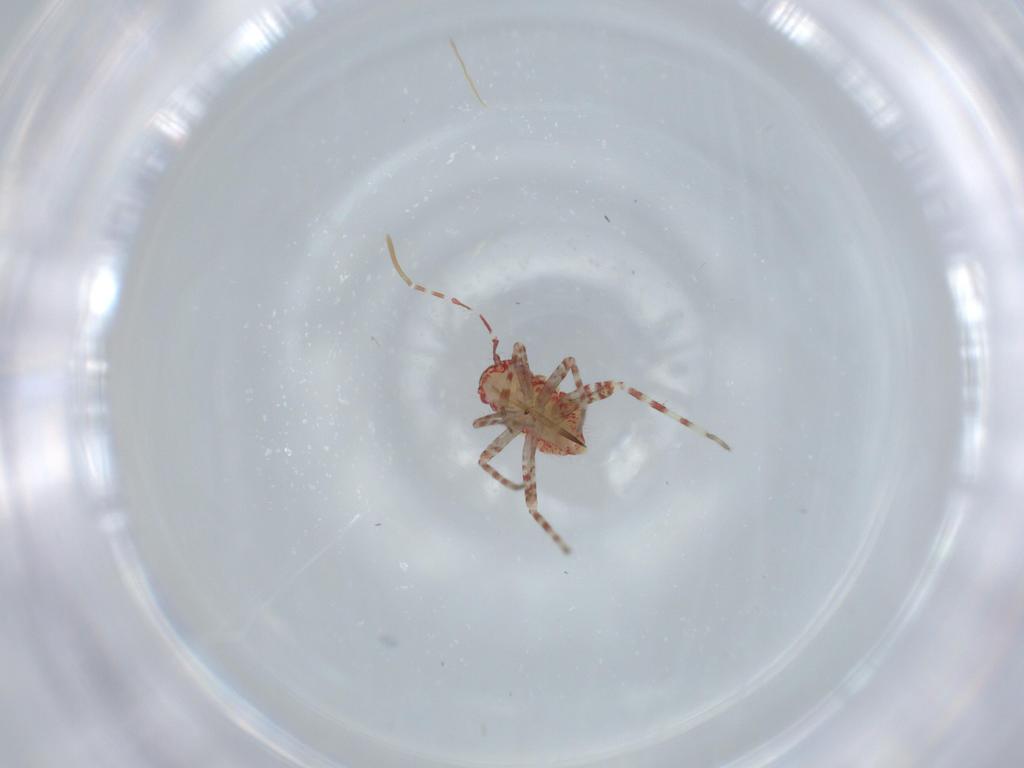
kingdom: Animalia
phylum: Arthropoda
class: Insecta
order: Hemiptera
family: Miridae
